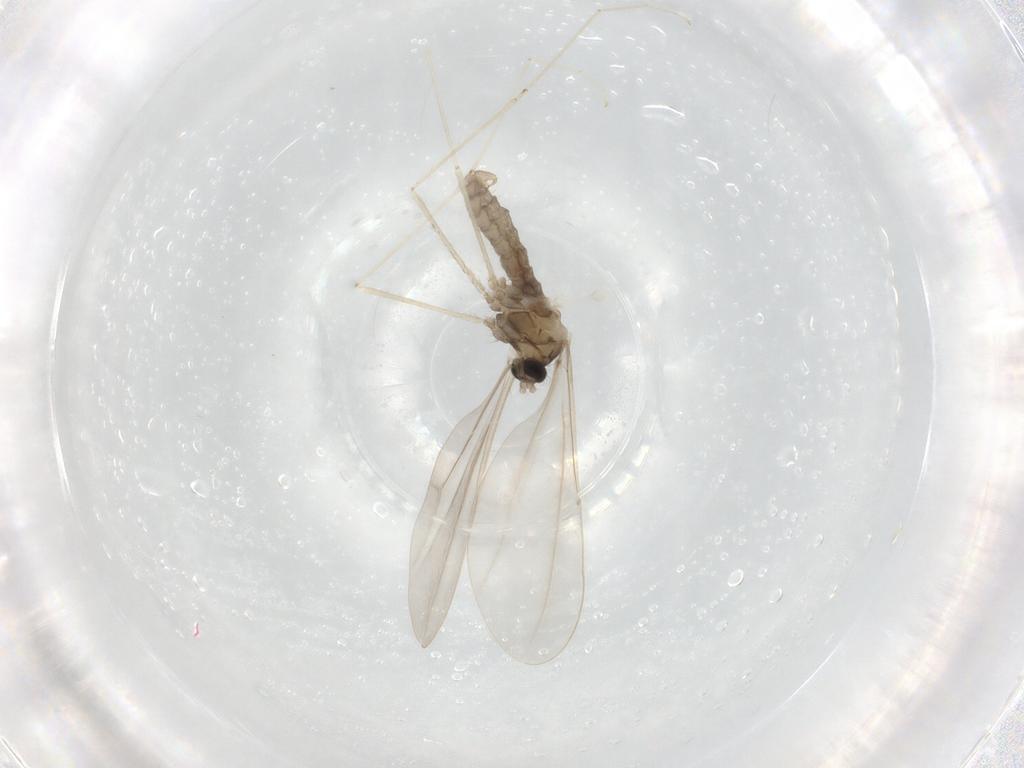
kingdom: Animalia
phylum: Arthropoda
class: Insecta
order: Diptera
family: Cecidomyiidae
